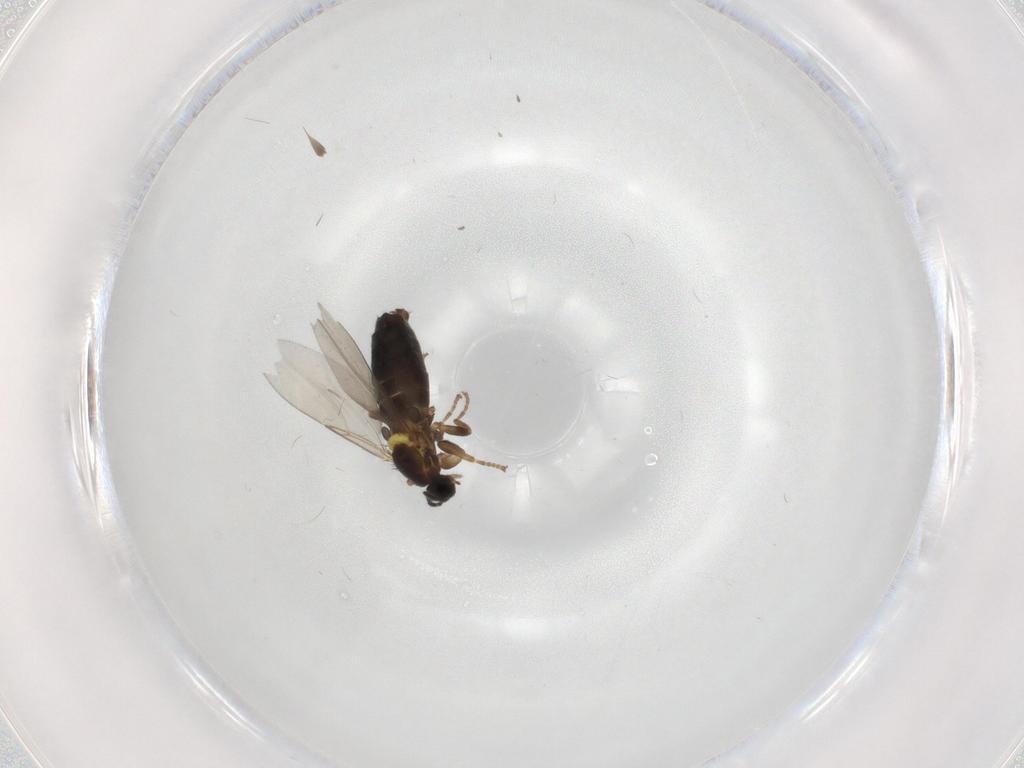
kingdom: Animalia
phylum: Arthropoda
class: Insecta
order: Diptera
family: Scatopsidae
